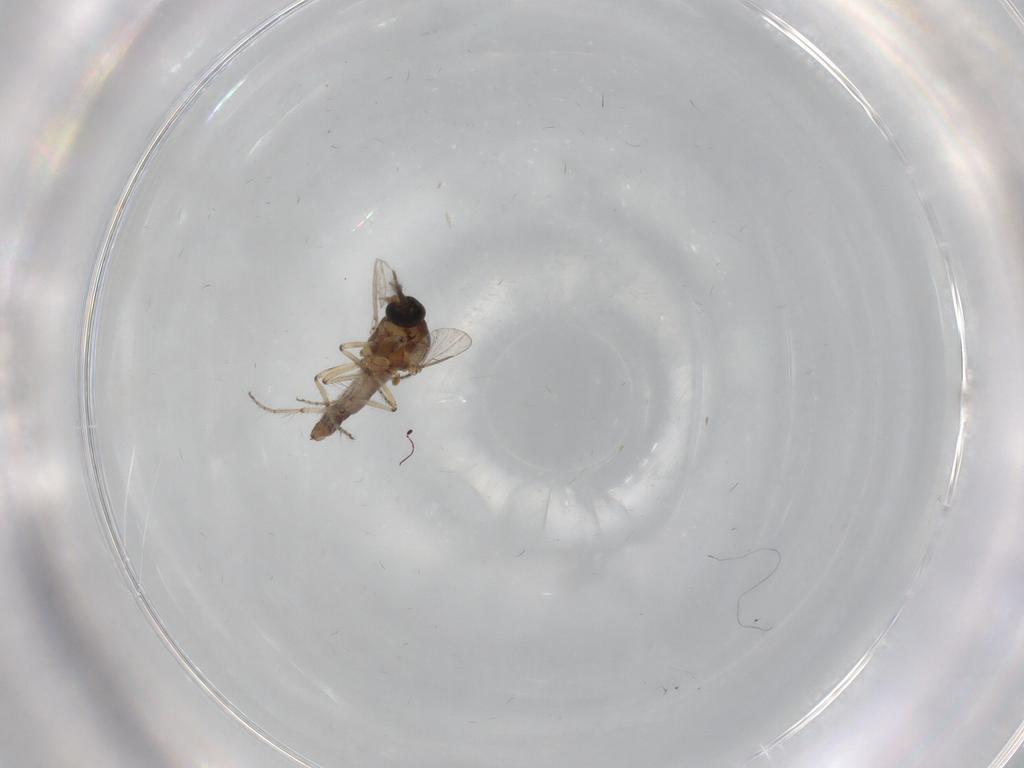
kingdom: Animalia
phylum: Arthropoda
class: Insecta
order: Diptera
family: Ceratopogonidae
